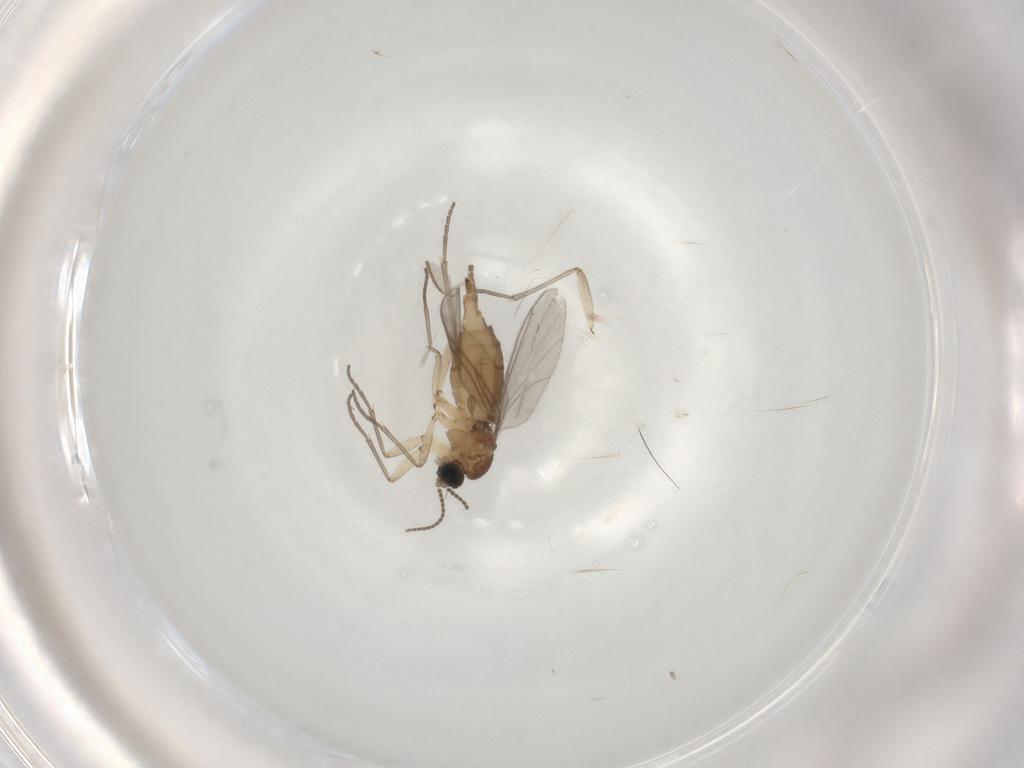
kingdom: Animalia
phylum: Arthropoda
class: Insecta
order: Diptera
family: Sciaridae
